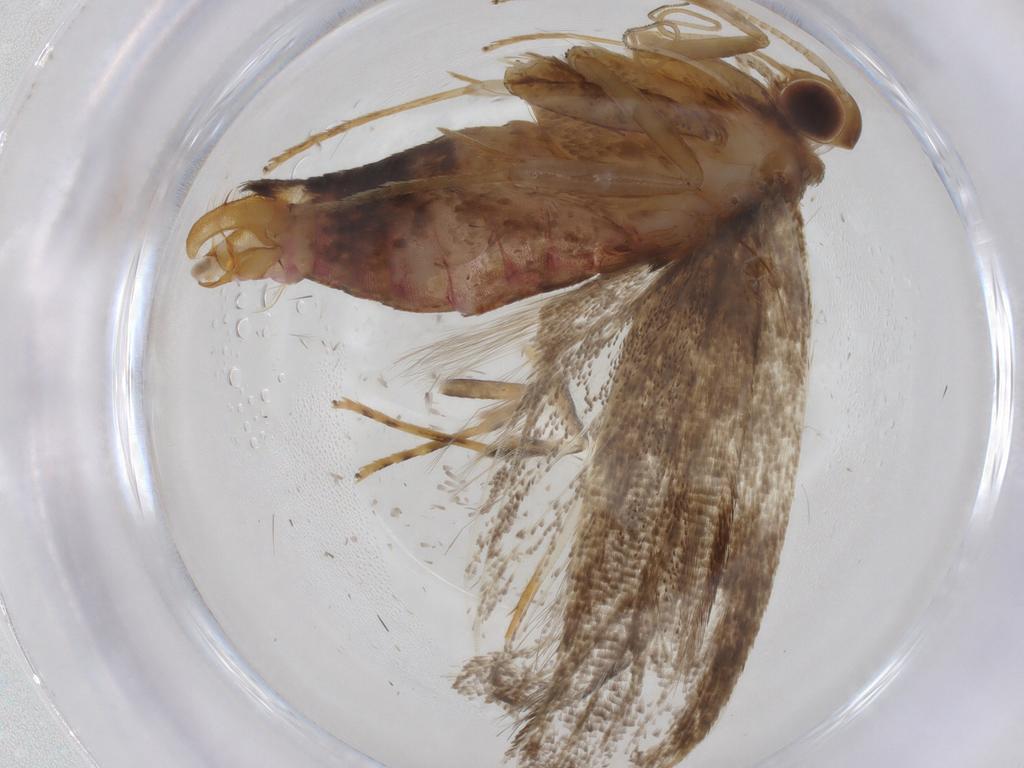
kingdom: Animalia
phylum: Arthropoda
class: Insecta
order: Lepidoptera
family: Lecithoceridae
